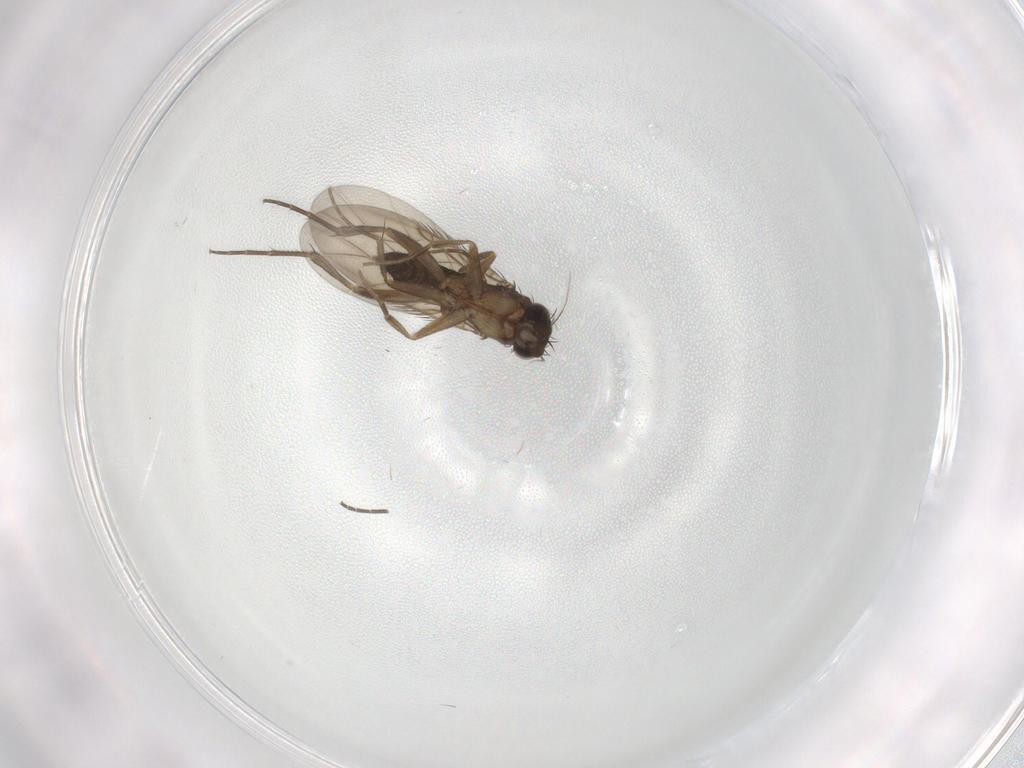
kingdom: Animalia
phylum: Arthropoda
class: Insecta
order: Diptera
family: Phoridae
